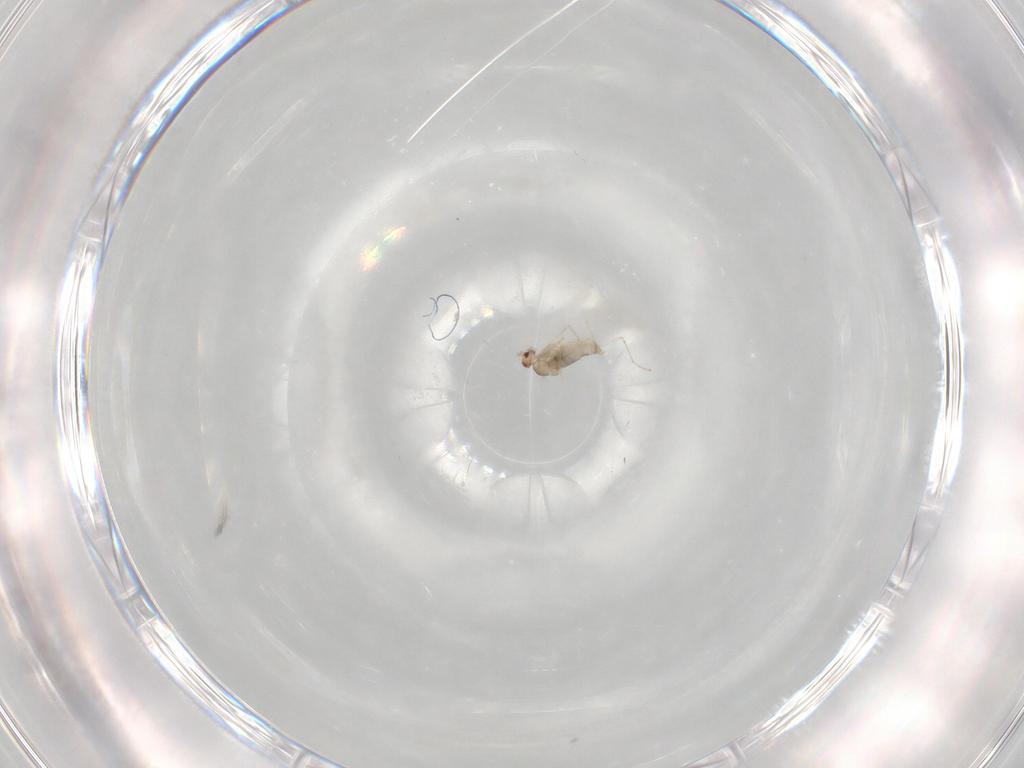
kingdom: Animalia
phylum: Arthropoda
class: Insecta
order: Diptera
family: Cecidomyiidae
